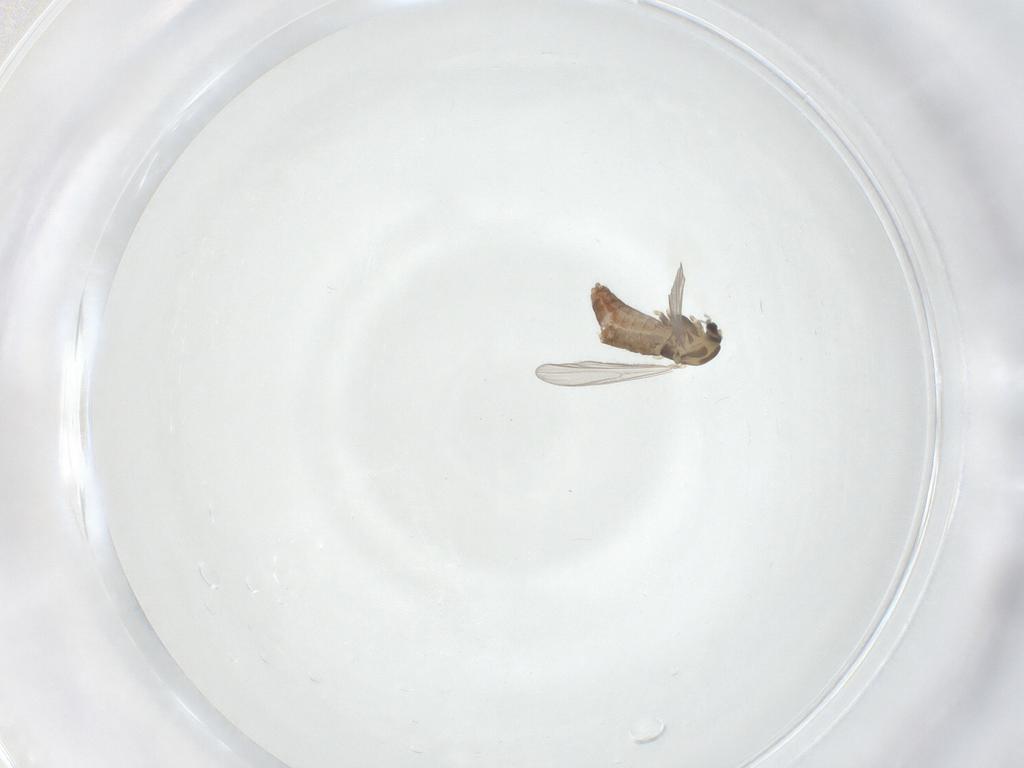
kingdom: Animalia
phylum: Arthropoda
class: Insecta
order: Diptera
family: Chironomidae
